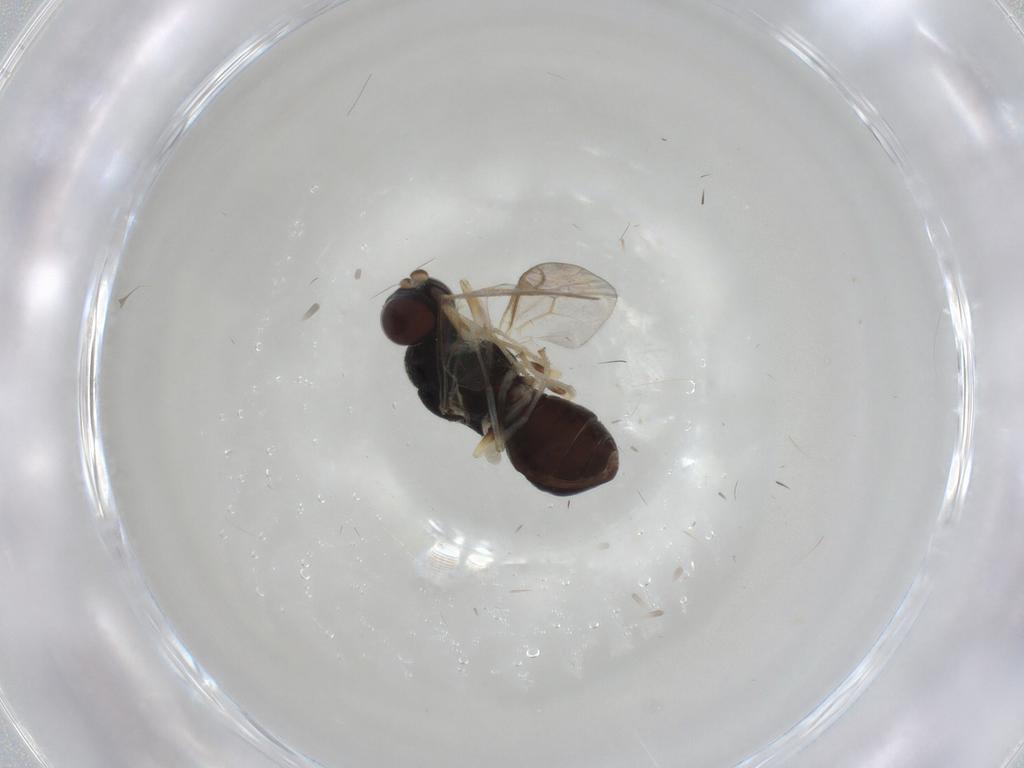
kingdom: Animalia
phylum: Arthropoda
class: Insecta
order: Diptera
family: Stratiomyidae
